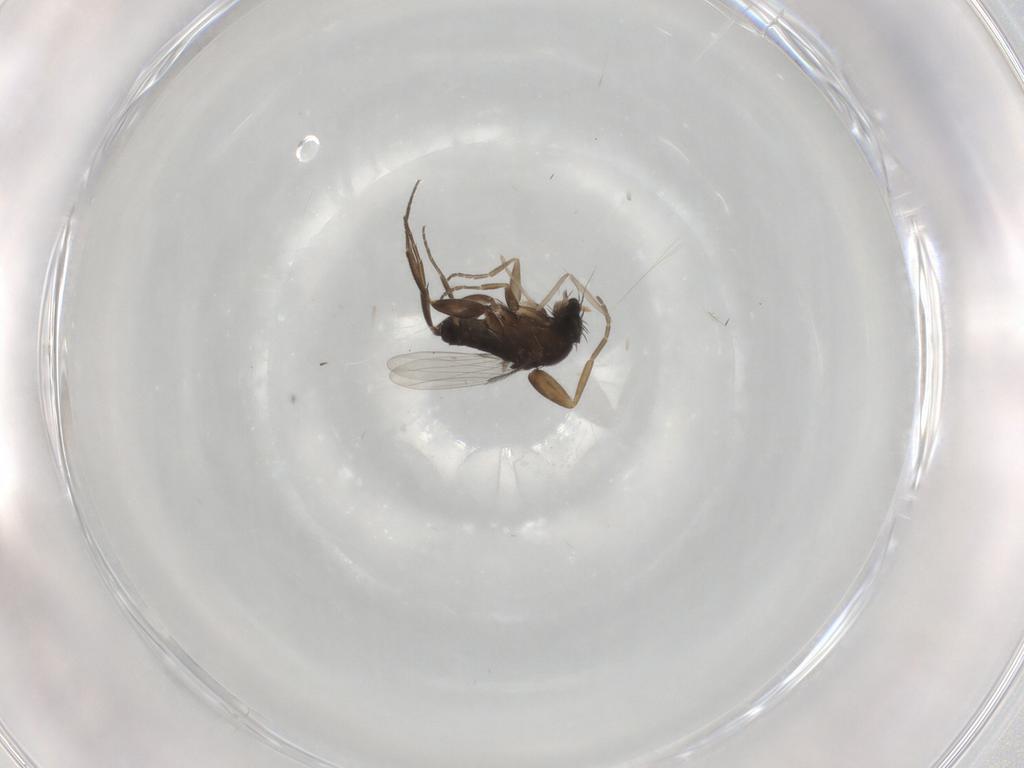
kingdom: Animalia
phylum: Arthropoda
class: Insecta
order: Diptera
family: Phoridae
